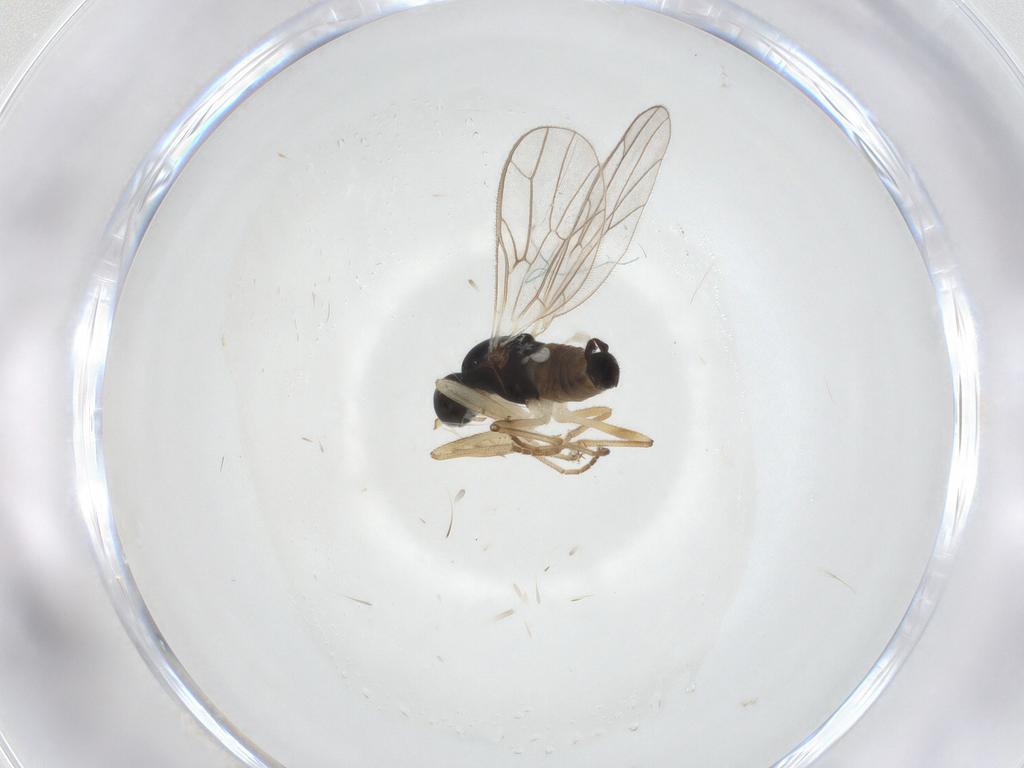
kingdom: Animalia
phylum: Arthropoda
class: Insecta
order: Diptera
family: Empididae
